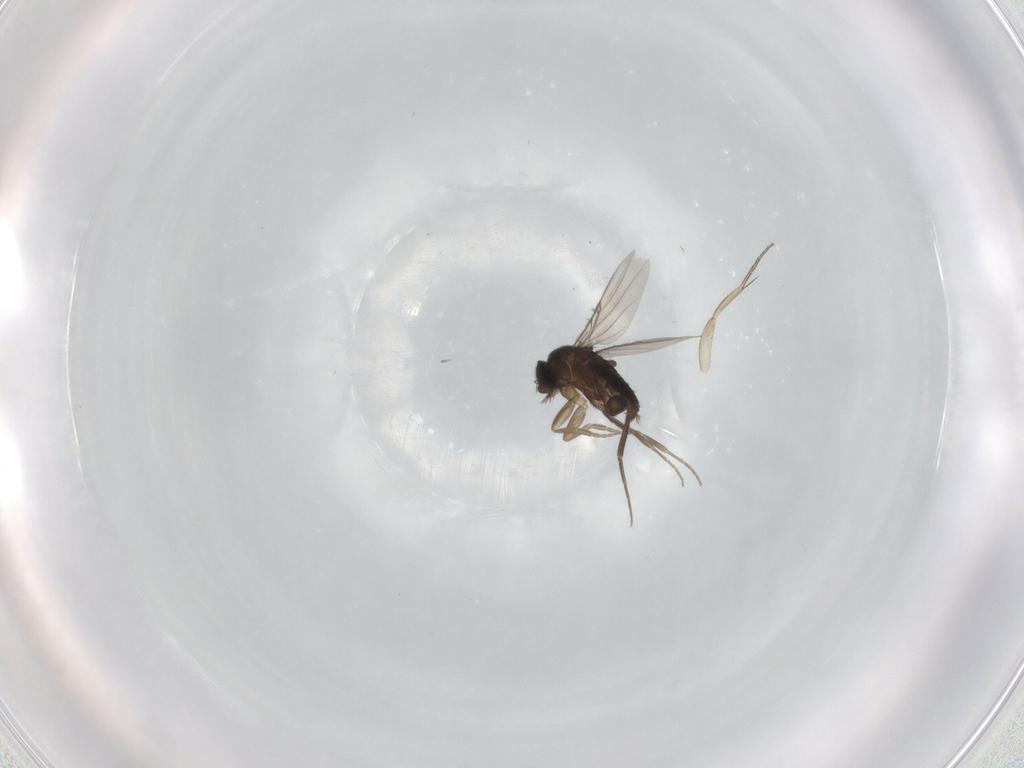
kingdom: Animalia
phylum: Arthropoda
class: Insecta
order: Diptera
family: Phoridae
